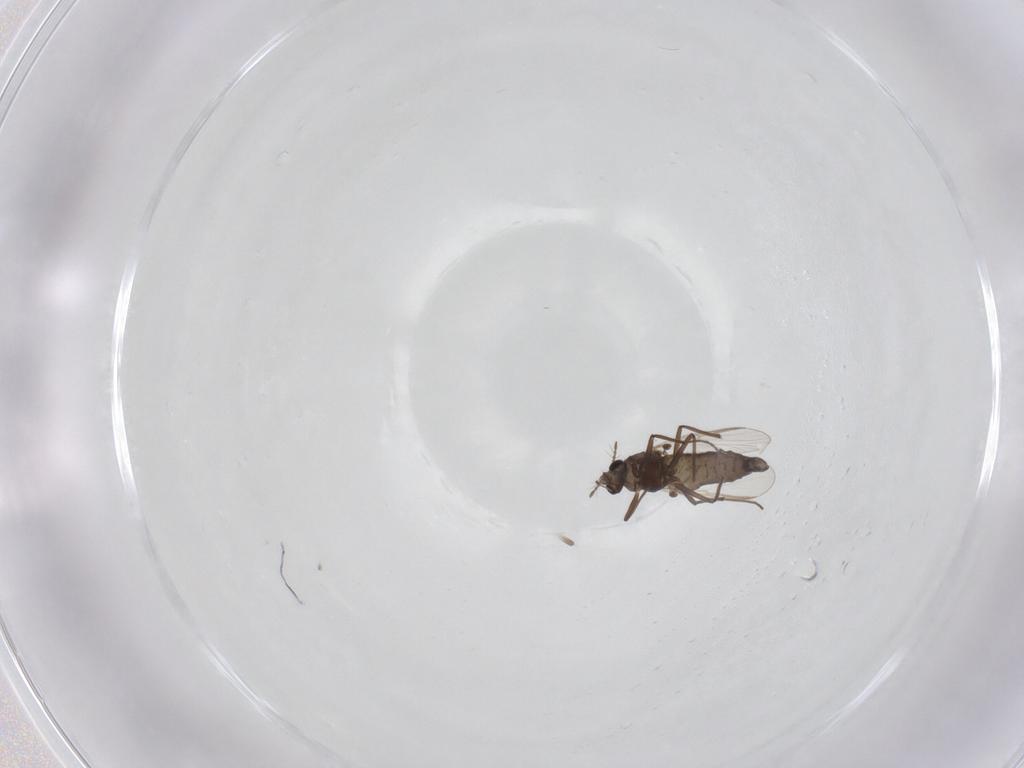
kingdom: Animalia
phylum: Arthropoda
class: Insecta
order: Diptera
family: Chironomidae
